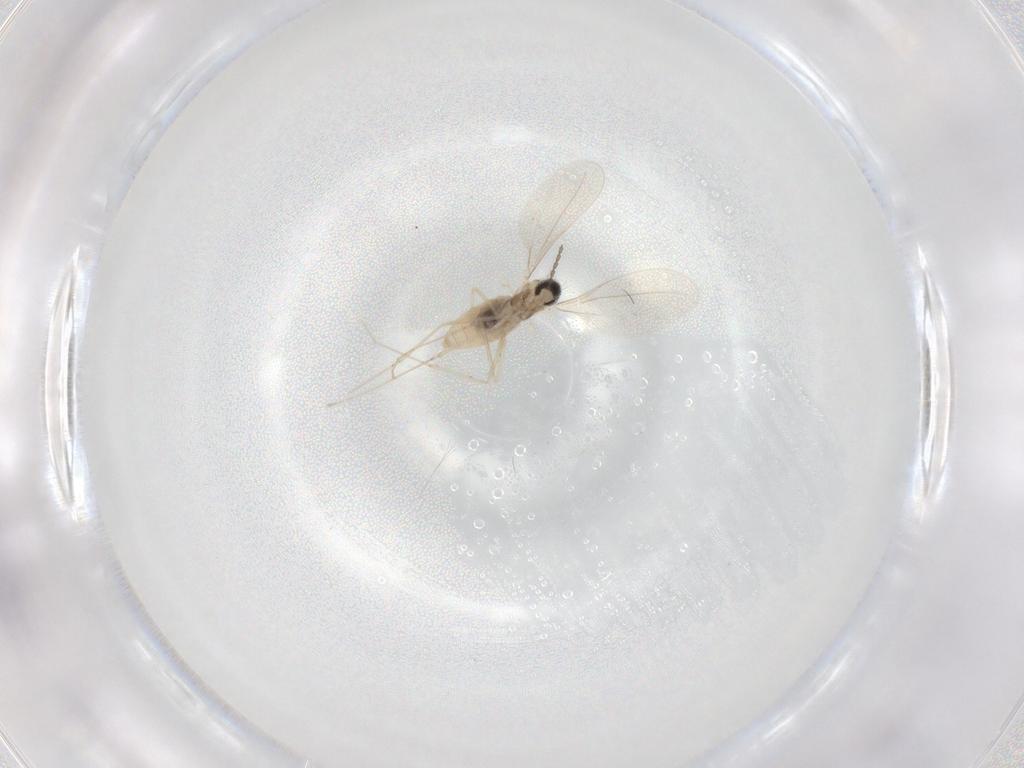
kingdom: Animalia
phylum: Arthropoda
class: Insecta
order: Diptera
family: Cecidomyiidae
